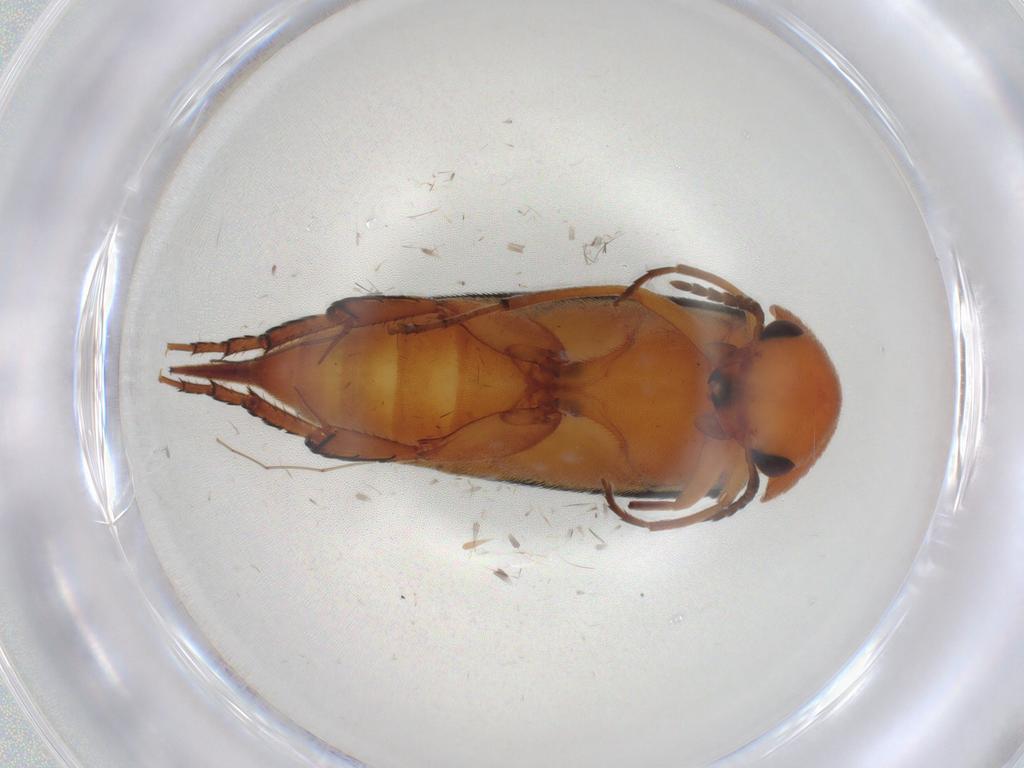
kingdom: Animalia
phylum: Arthropoda
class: Insecta
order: Coleoptera
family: Mordellidae
